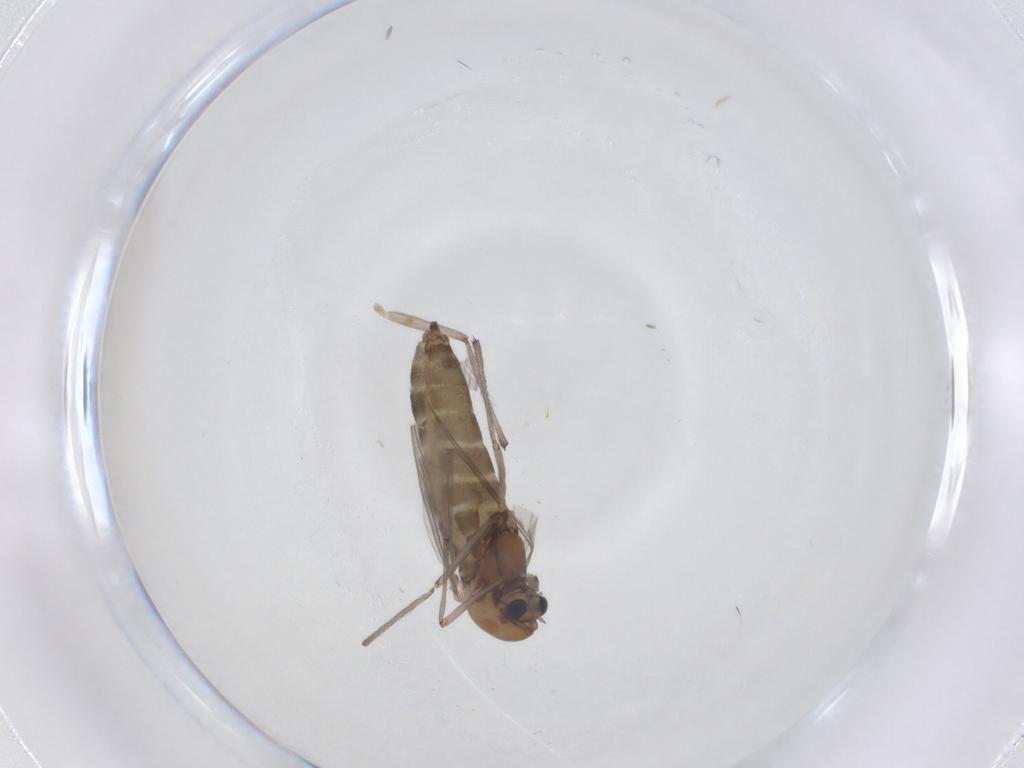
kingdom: Animalia
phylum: Arthropoda
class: Insecta
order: Diptera
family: Chironomidae
